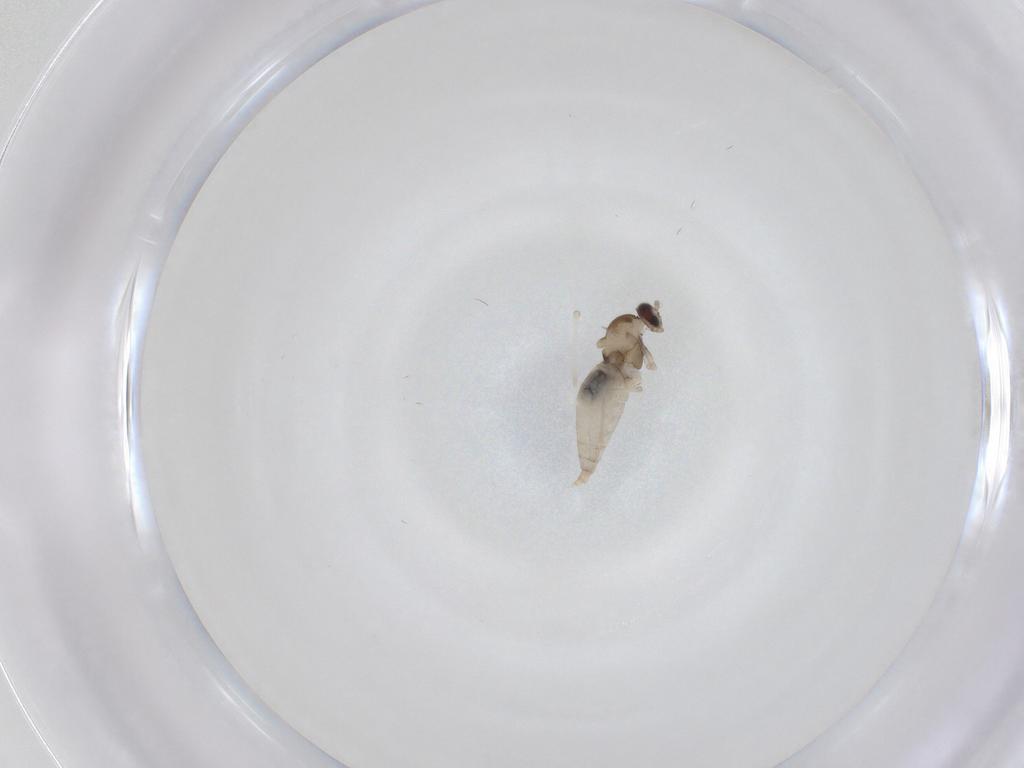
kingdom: Animalia
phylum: Arthropoda
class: Insecta
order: Diptera
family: Cecidomyiidae
